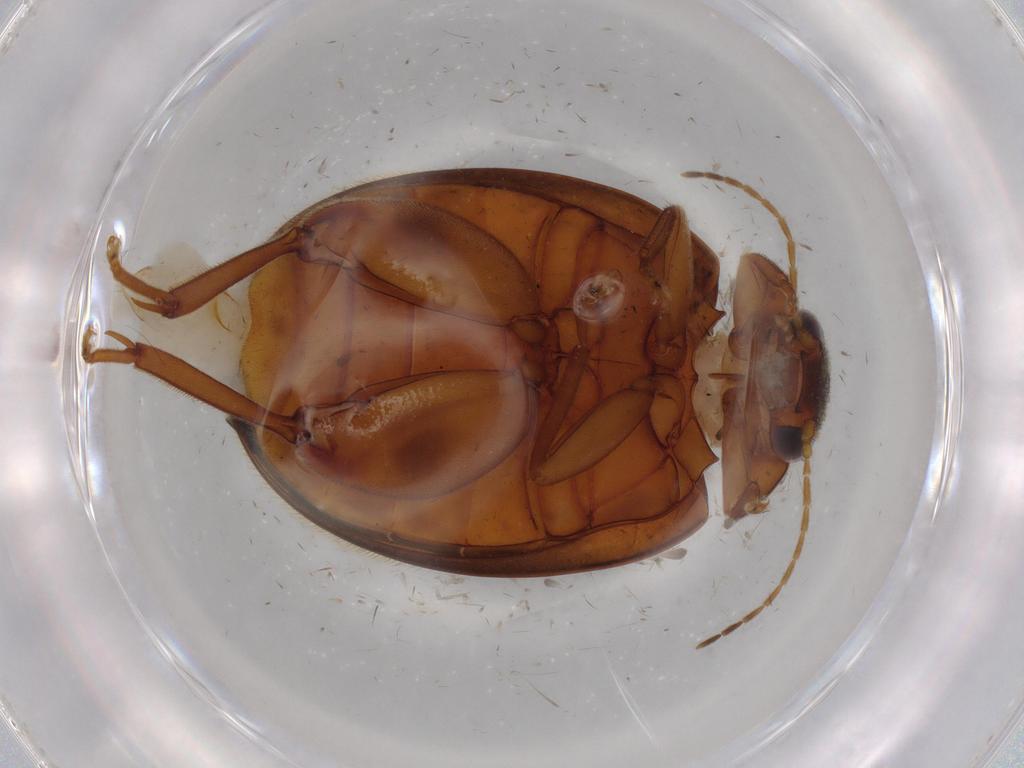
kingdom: Animalia
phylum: Arthropoda
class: Insecta
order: Coleoptera
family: Scirtidae
